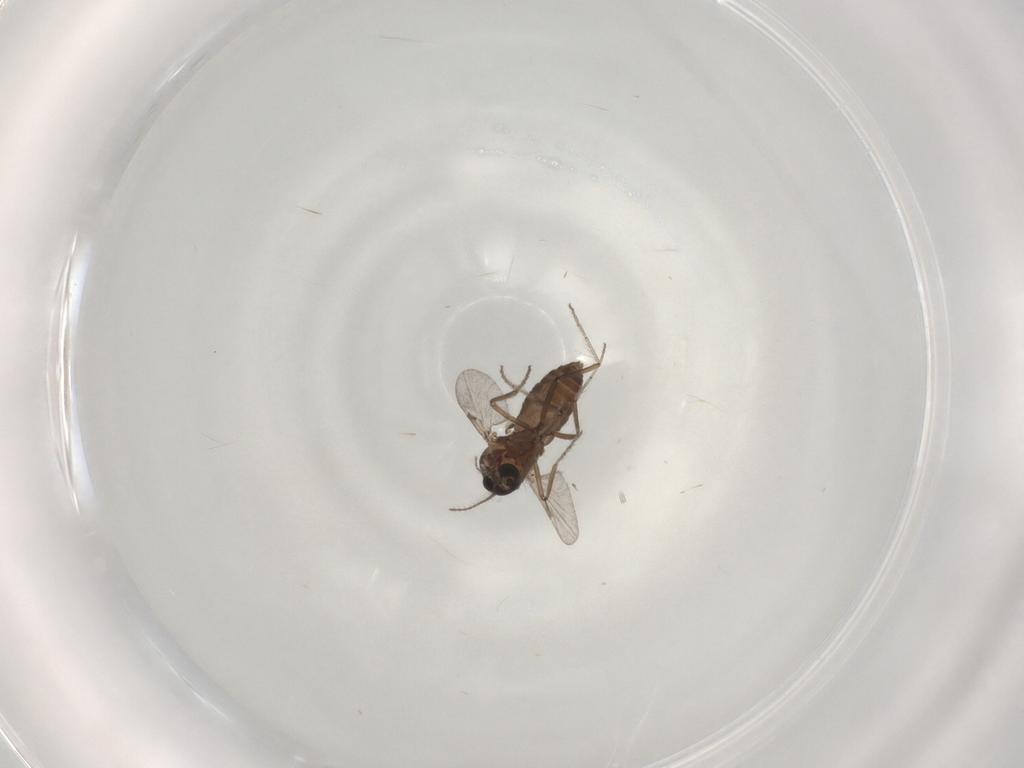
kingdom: Animalia
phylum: Arthropoda
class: Insecta
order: Diptera
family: Ceratopogonidae
